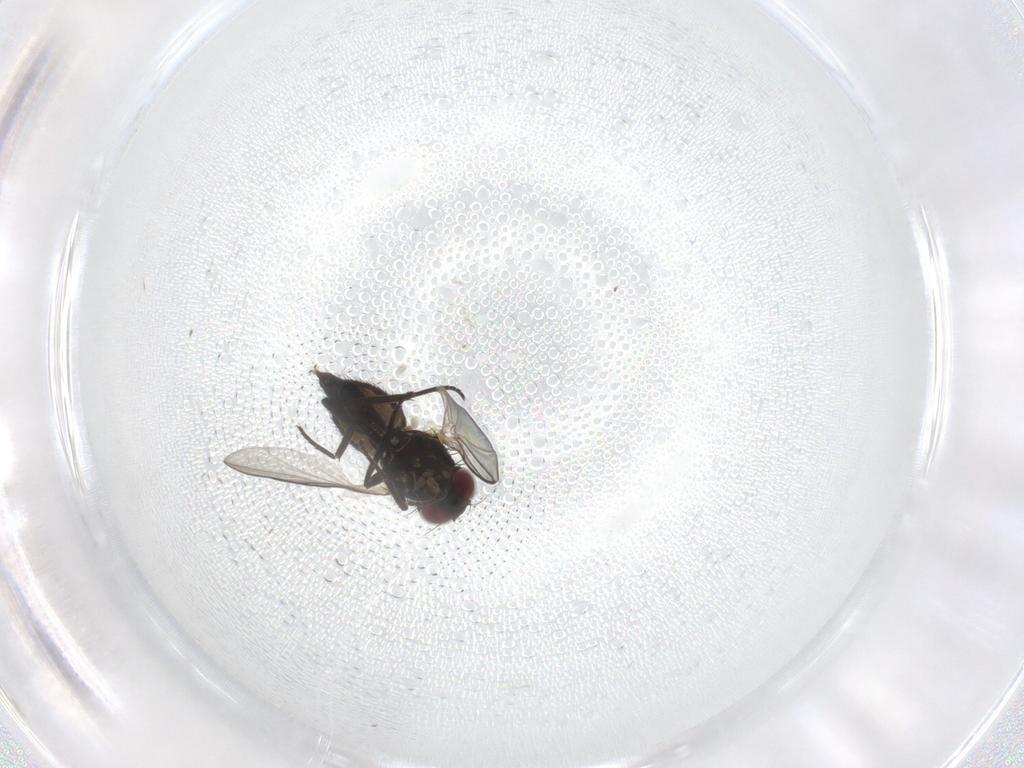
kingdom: Animalia
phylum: Arthropoda
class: Insecta
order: Diptera
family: Agromyzidae
